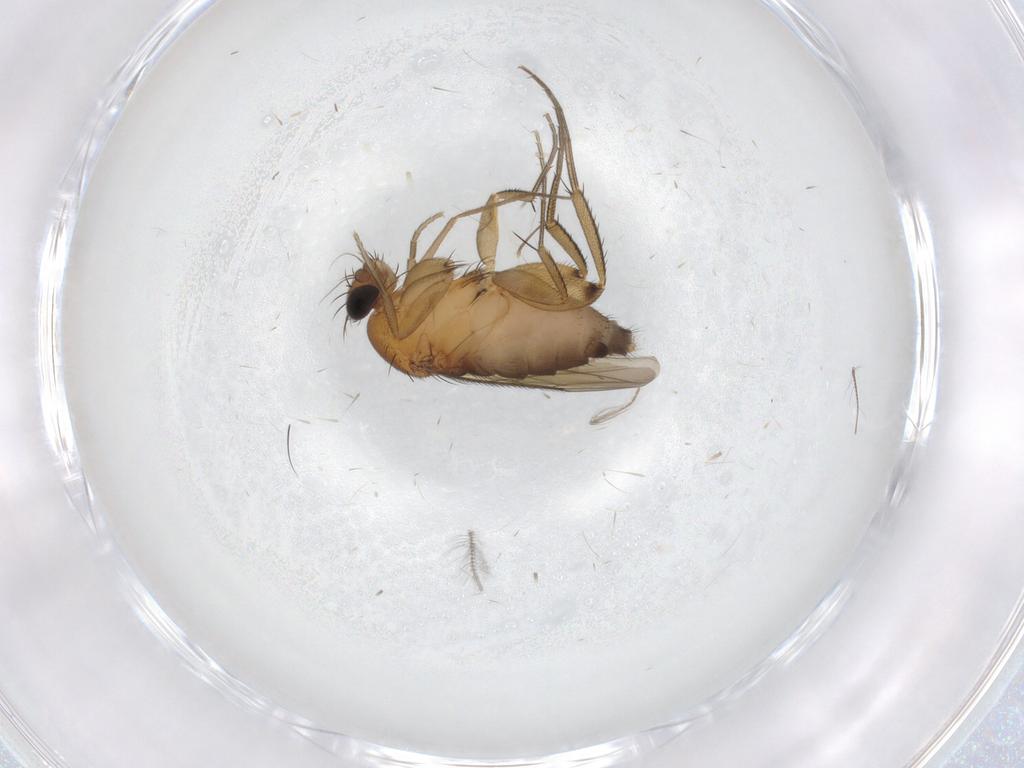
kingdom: Animalia
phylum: Arthropoda
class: Insecta
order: Diptera
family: Phoridae
